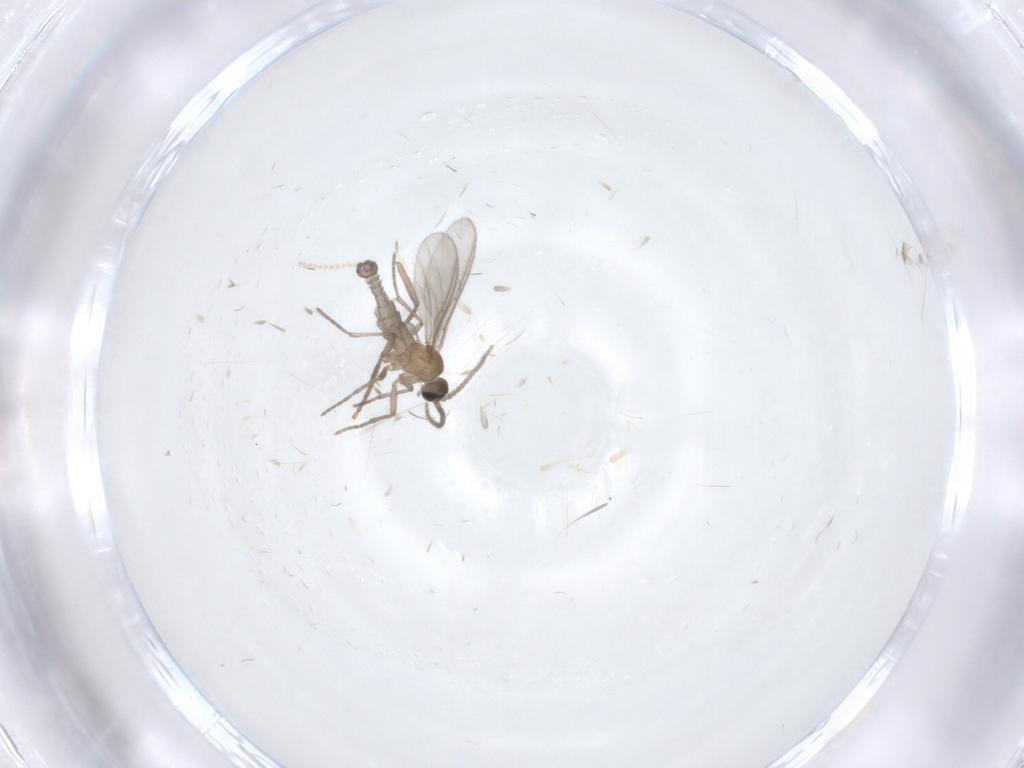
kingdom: Animalia
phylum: Arthropoda
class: Insecta
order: Diptera
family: Sciaridae
